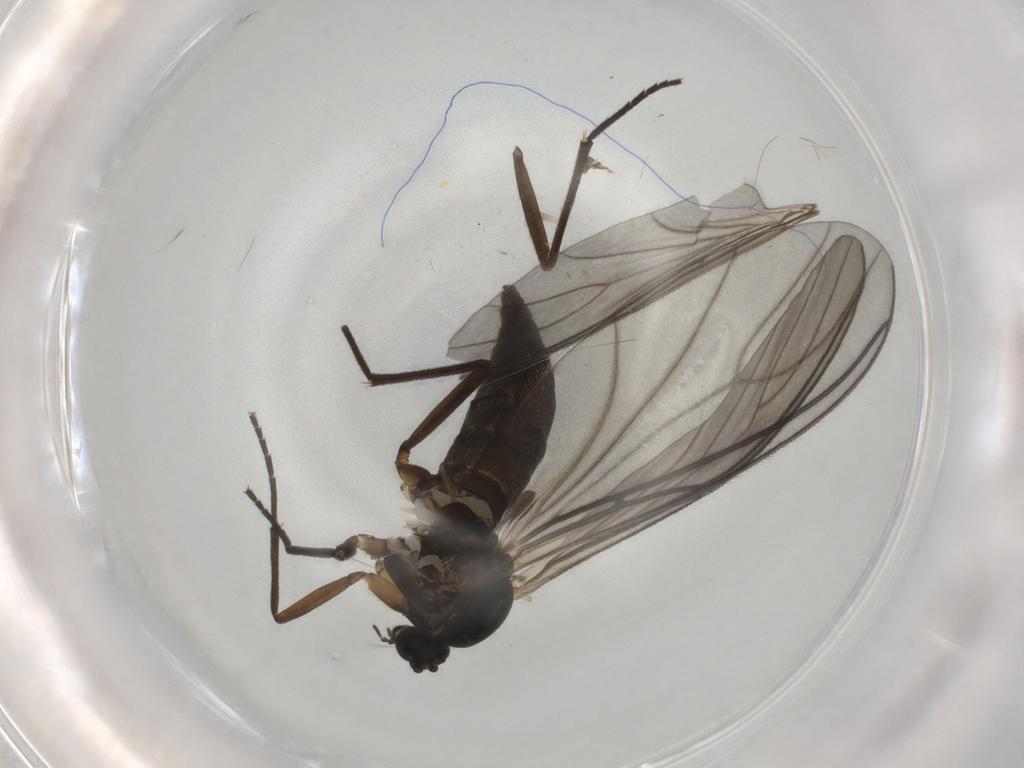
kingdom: Animalia
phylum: Arthropoda
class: Insecta
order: Diptera
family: Sciaridae
